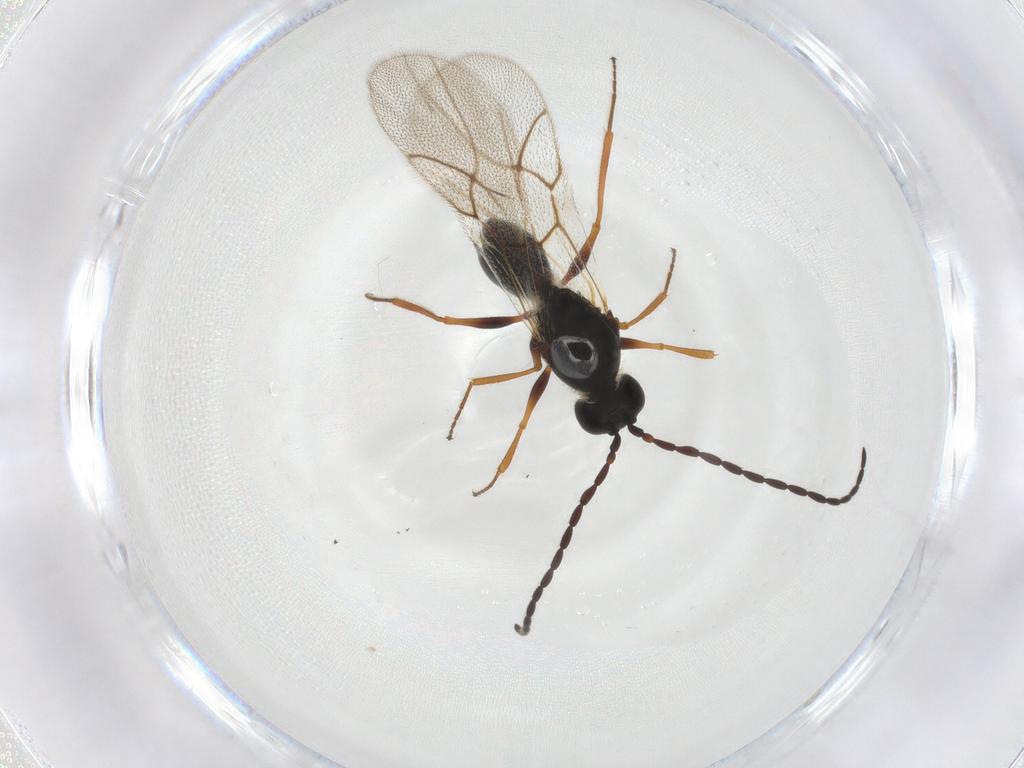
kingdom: Animalia
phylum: Arthropoda
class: Insecta
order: Hymenoptera
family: Figitidae
